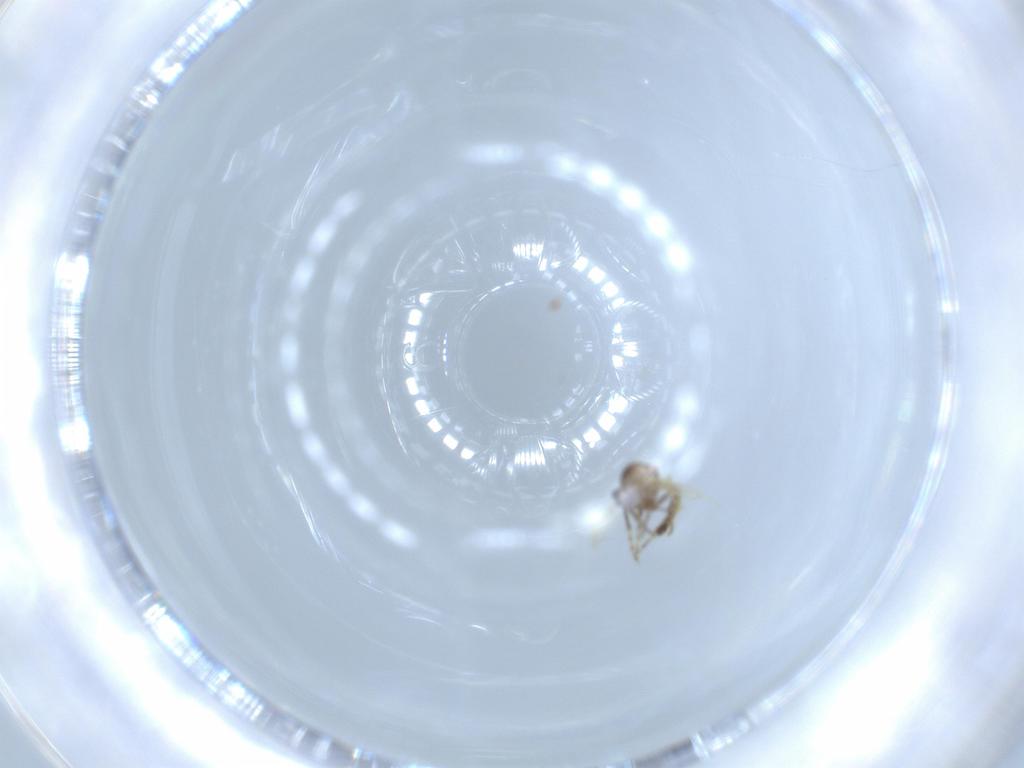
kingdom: Animalia
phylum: Arthropoda
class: Insecta
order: Diptera
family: Ceratopogonidae
